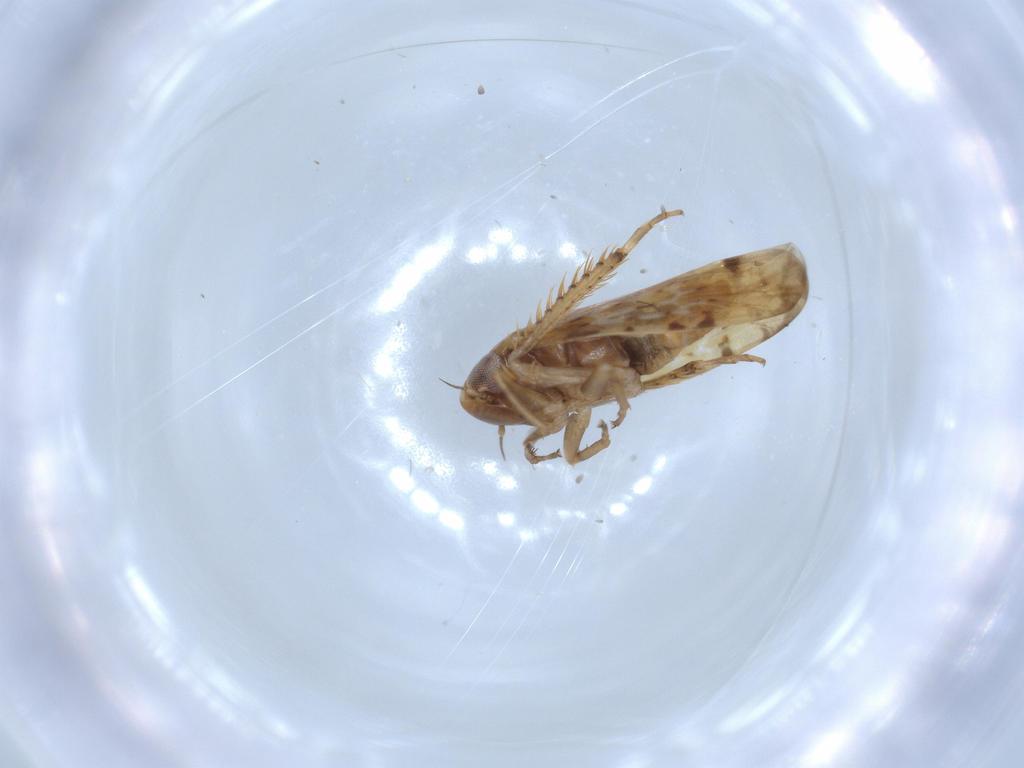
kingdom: Animalia
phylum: Arthropoda
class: Insecta
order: Hemiptera
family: Cicadellidae
